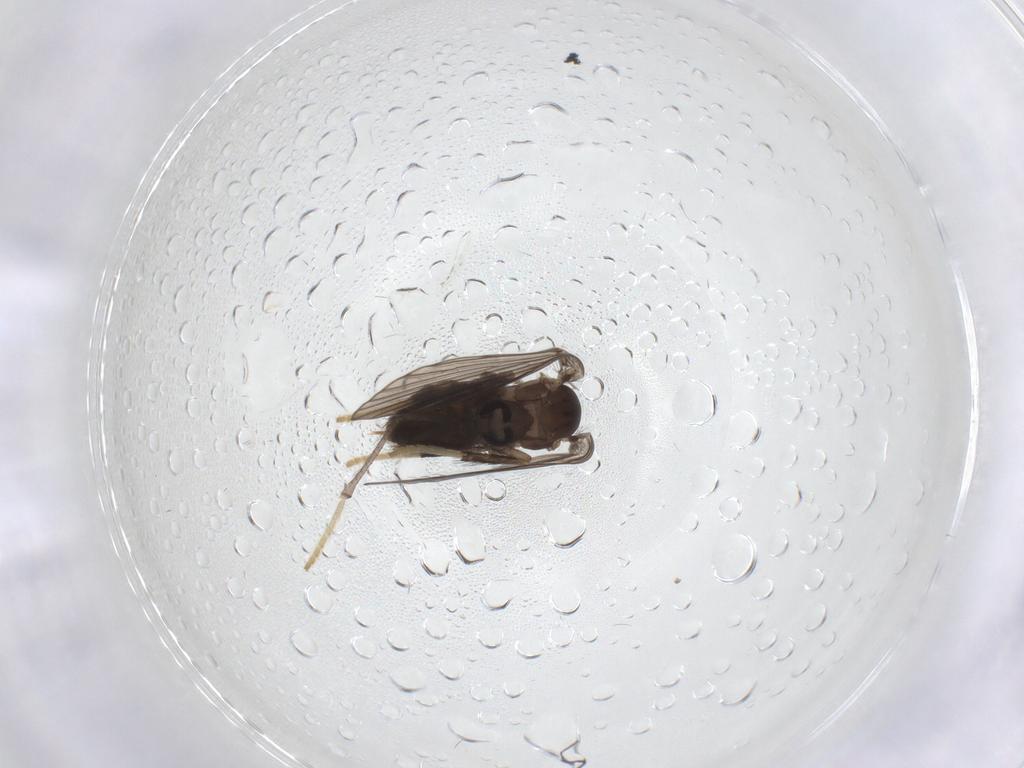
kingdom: Animalia
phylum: Arthropoda
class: Insecta
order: Diptera
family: Psychodidae
